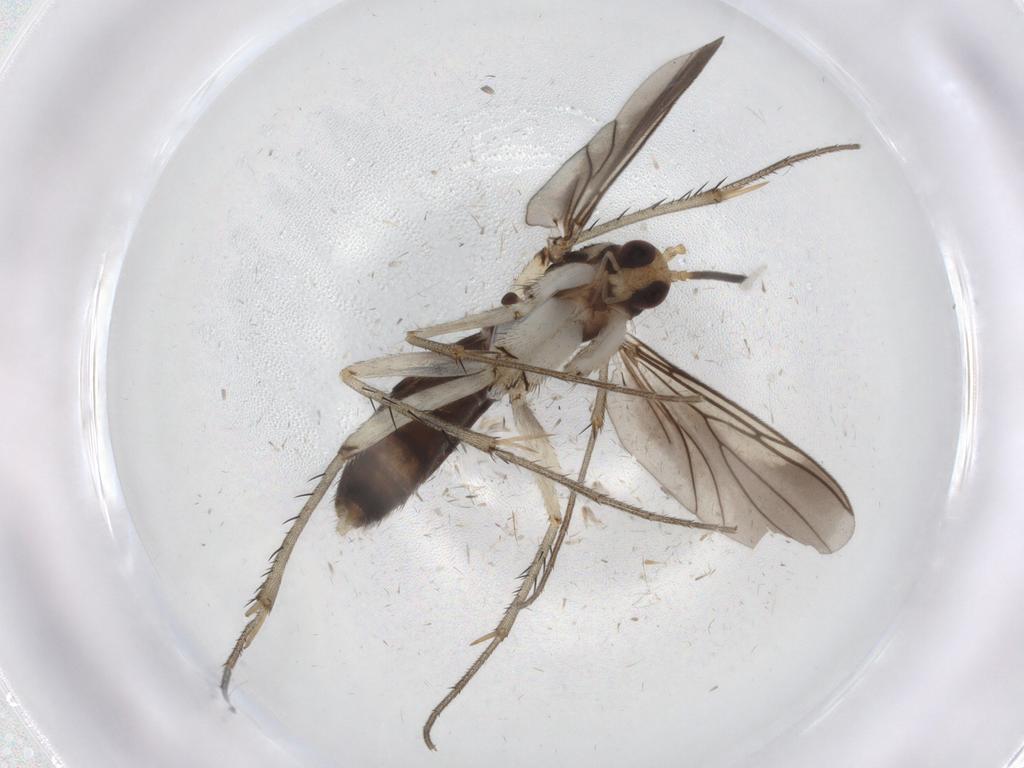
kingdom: Animalia
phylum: Arthropoda
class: Insecta
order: Diptera
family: Mycetophilidae
